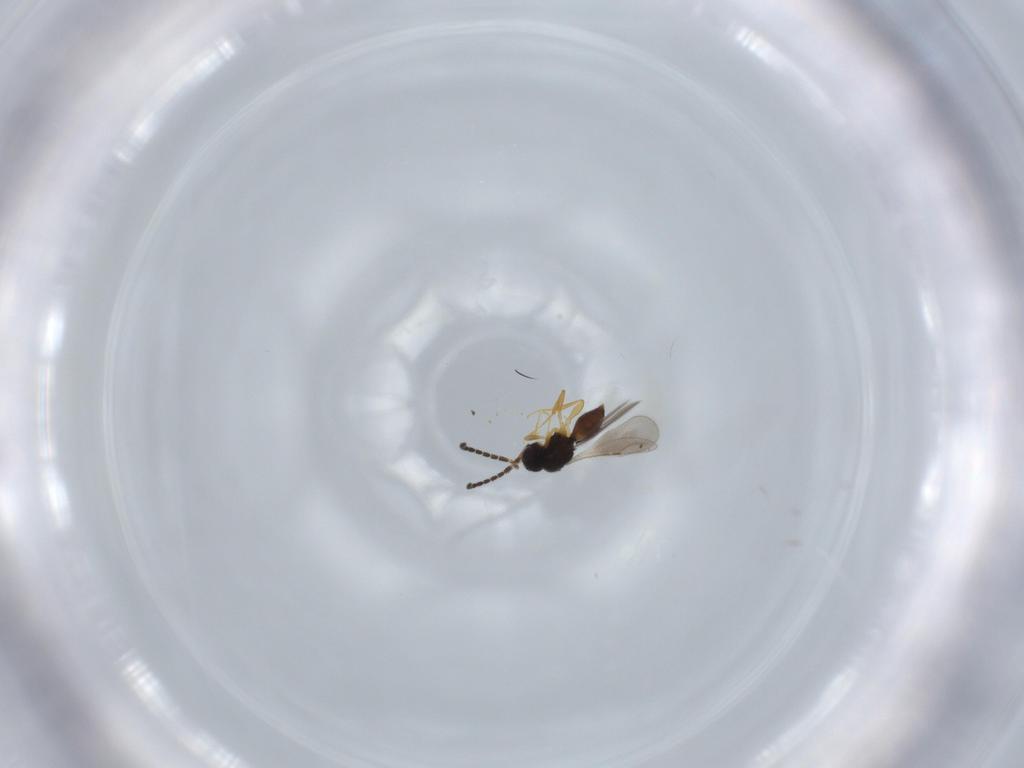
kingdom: Animalia
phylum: Arthropoda
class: Insecta
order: Hymenoptera
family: Ceraphronidae
